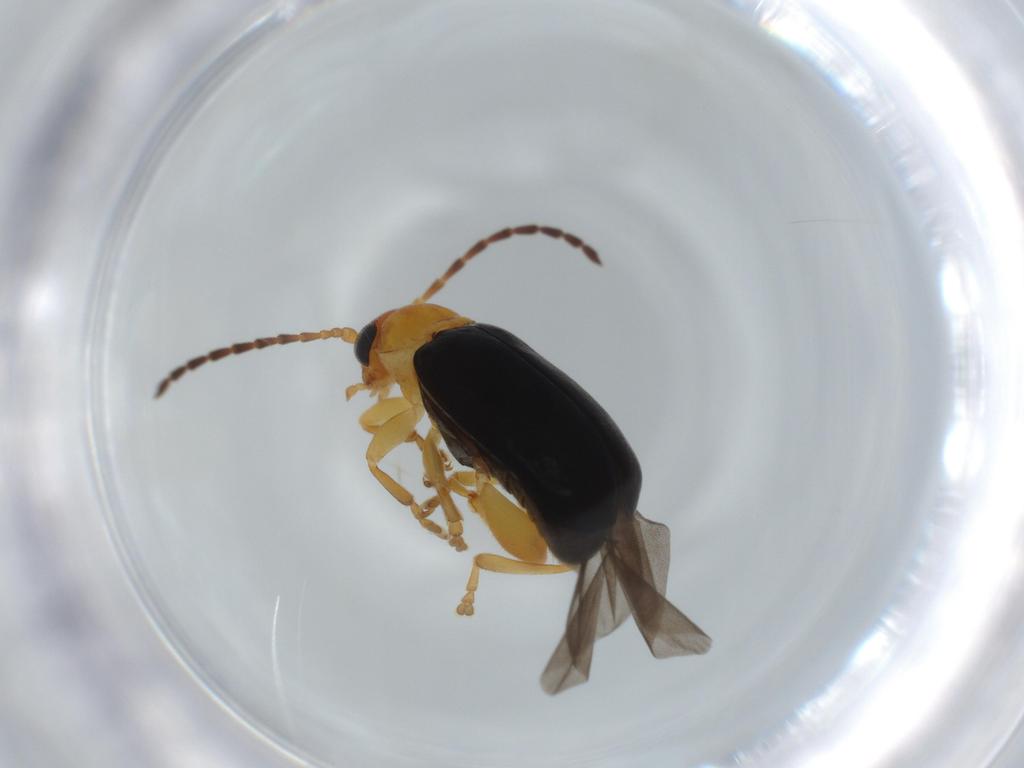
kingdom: Animalia
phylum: Arthropoda
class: Insecta
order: Coleoptera
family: Chrysomelidae
